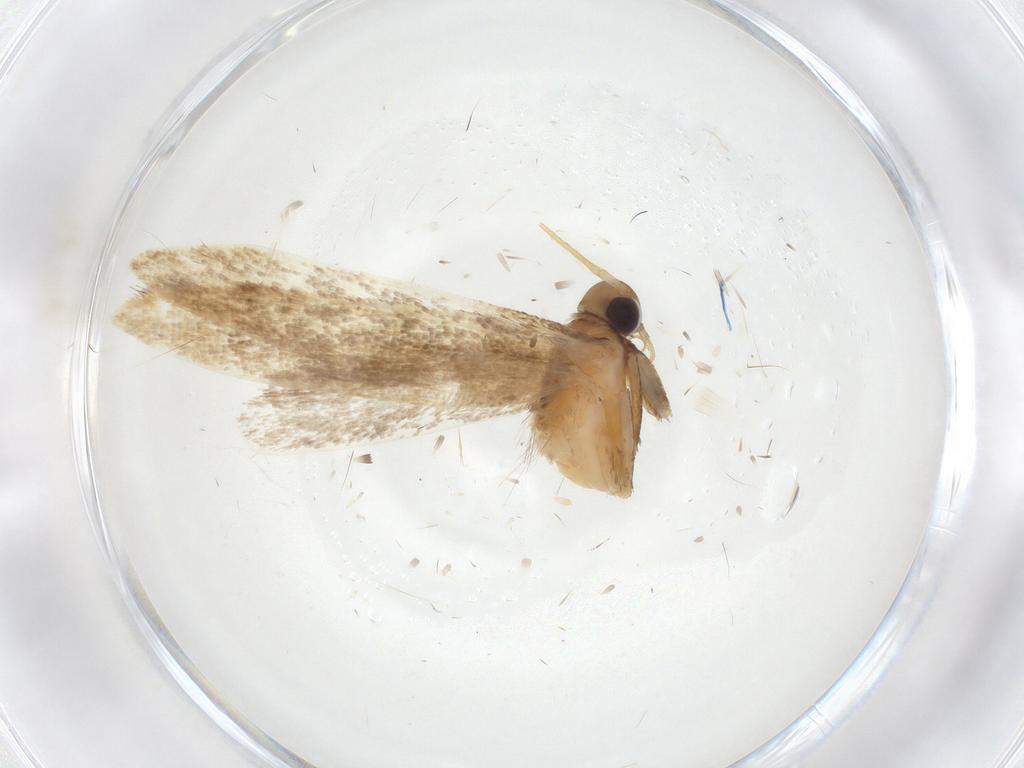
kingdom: Animalia
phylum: Arthropoda
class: Insecta
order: Lepidoptera
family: Gelechiidae
